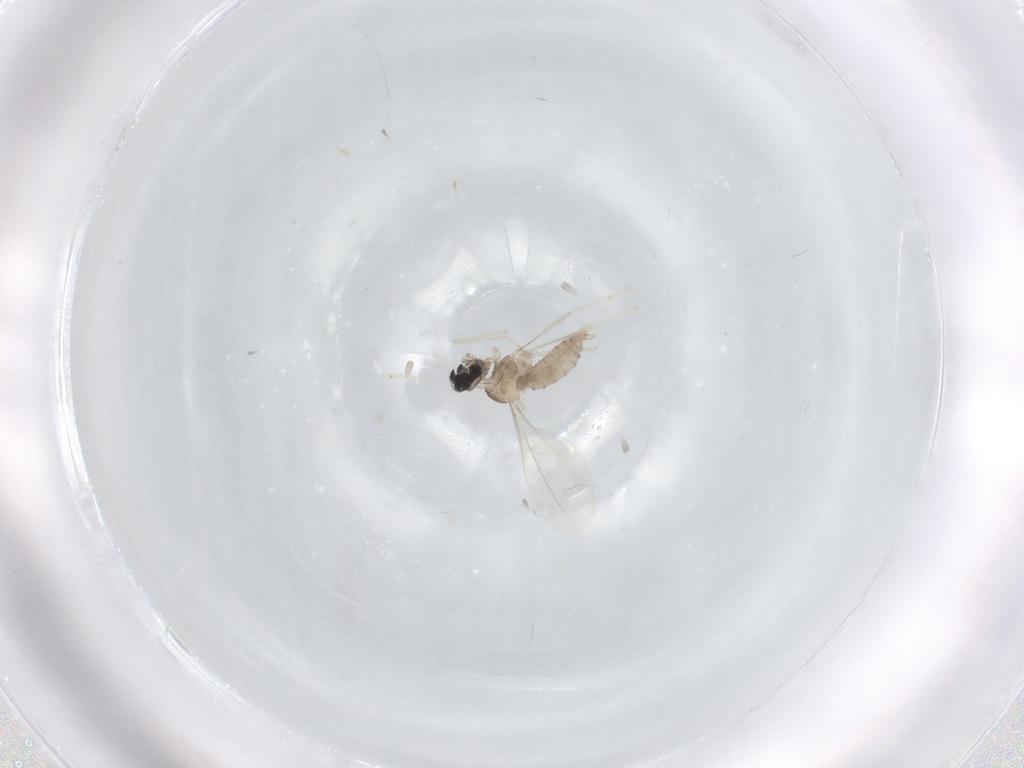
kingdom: Animalia
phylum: Arthropoda
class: Insecta
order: Diptera
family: Cecidomyiidae
